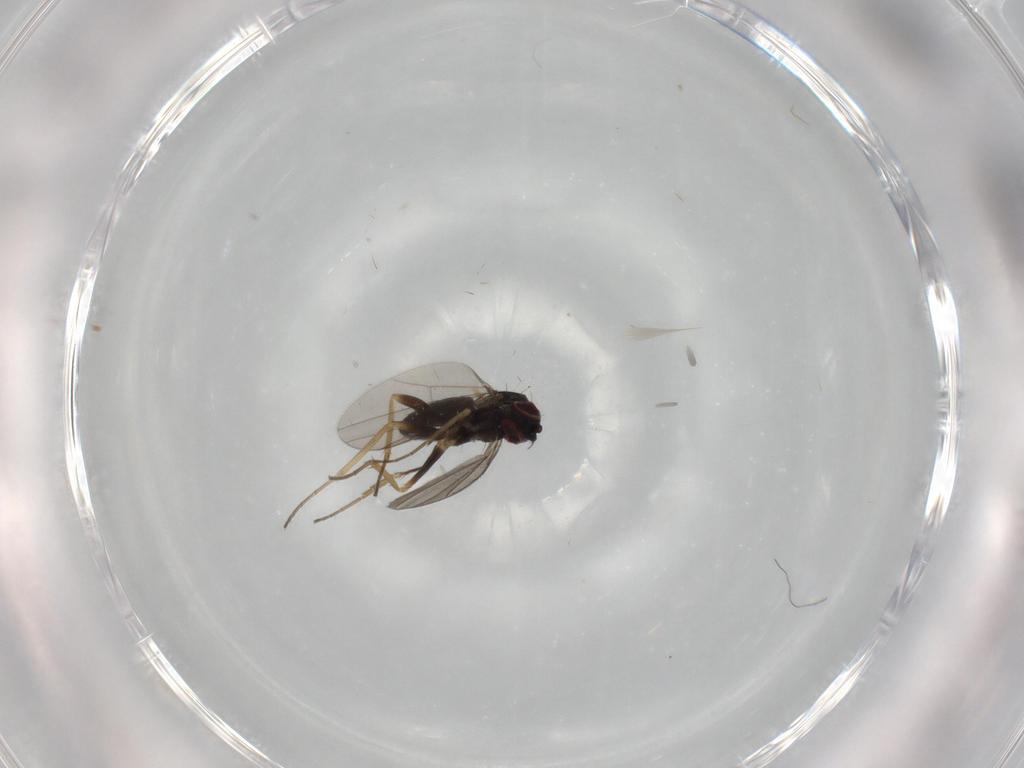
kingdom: Animalia
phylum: Arthropoda
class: Insecta
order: Diptera
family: Dolichopodidae
